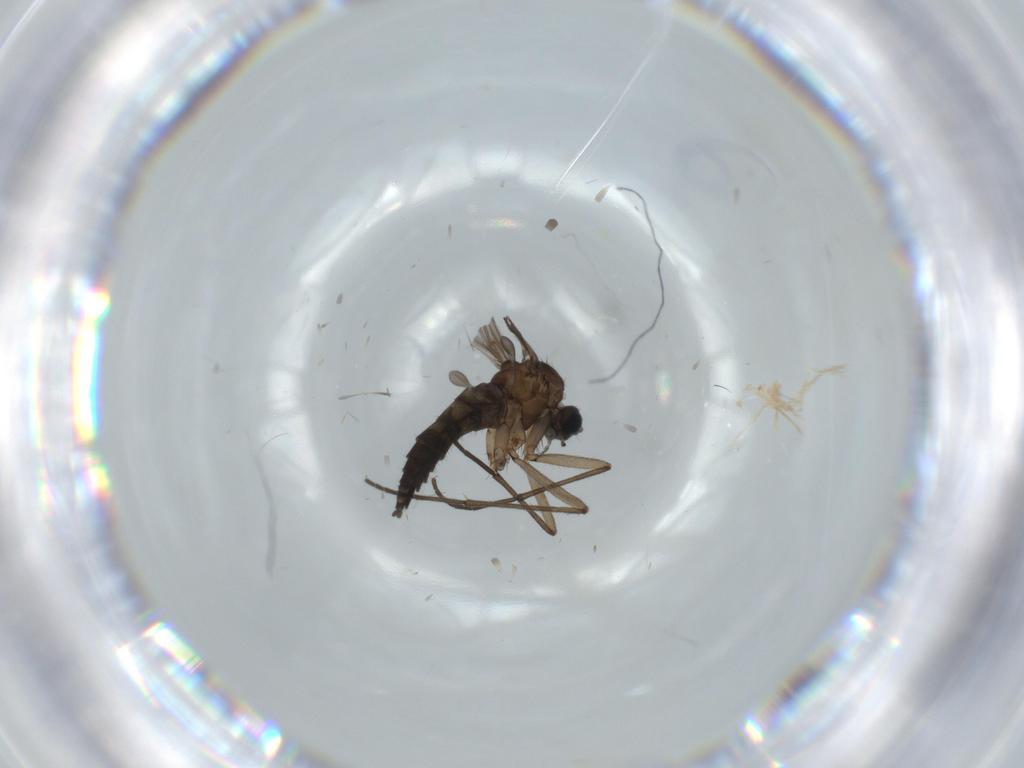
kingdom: Animalia
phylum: Arthropoda
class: Insecta
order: Diptera
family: Sciaridae
